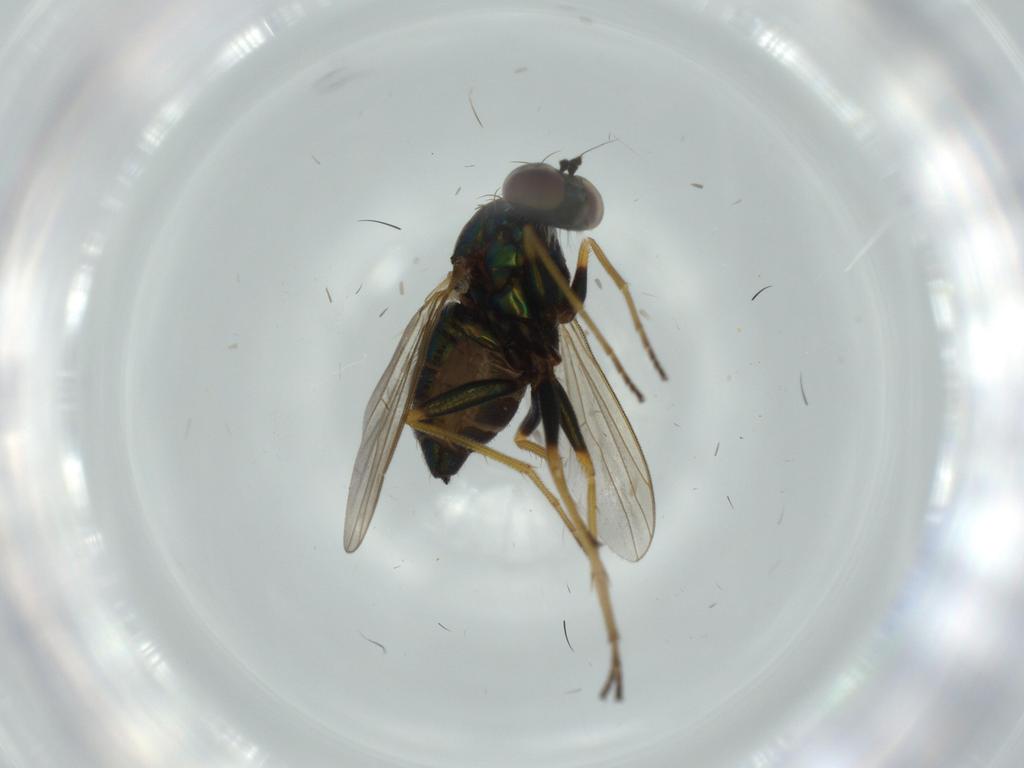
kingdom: Animalia
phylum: Arthropoda
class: Insecta
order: Diptera
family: Dolichopodidae
